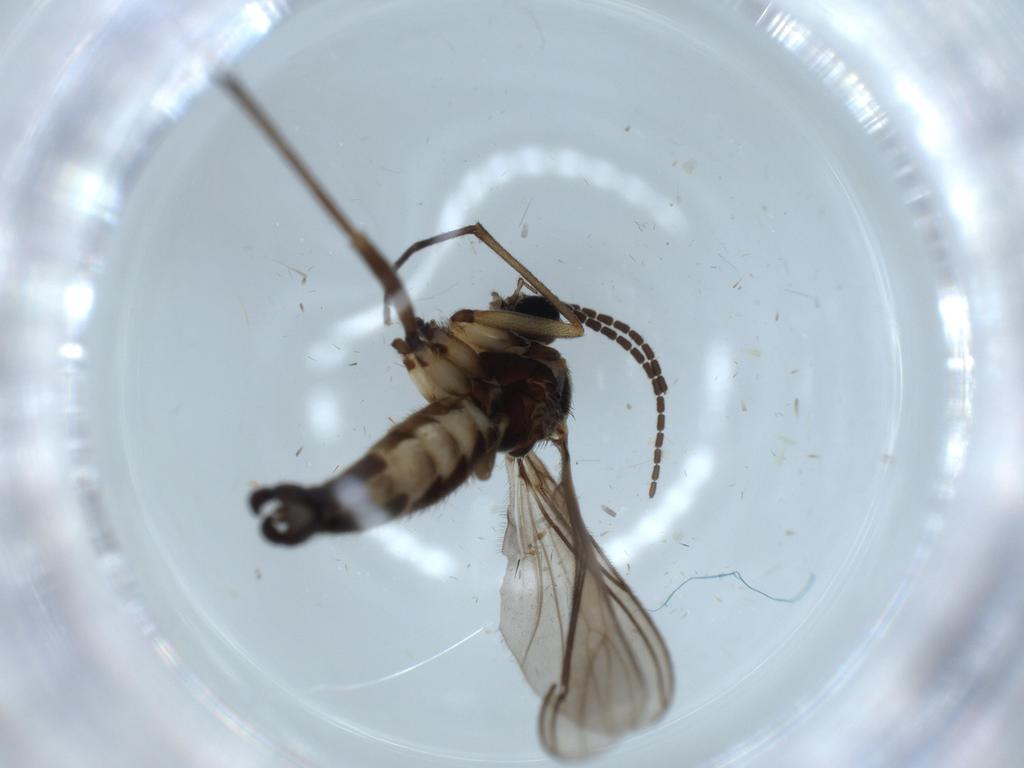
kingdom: Animalia
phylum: Arthropoda
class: Insecta
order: Diptera
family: Sciaridae
